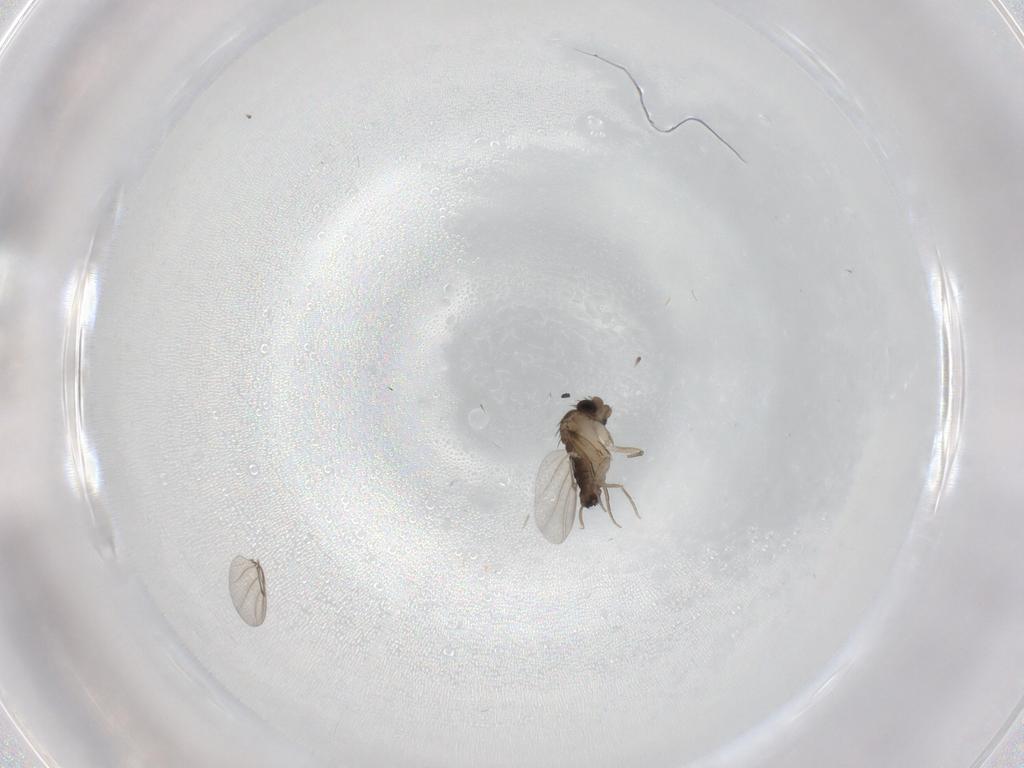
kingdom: Animalia
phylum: Arthropoda
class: Insecta
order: Diptera
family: Phoridae
